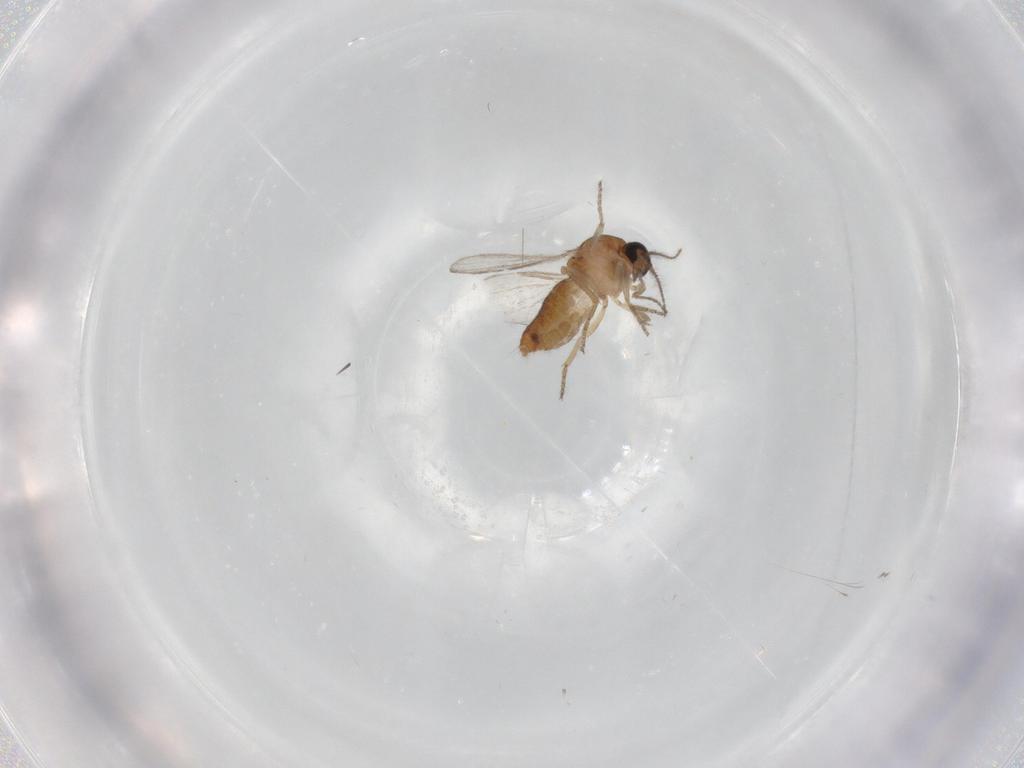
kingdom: Animalia
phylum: Arthropoda
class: Insecta
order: Diptera
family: Ceratopogonidae
